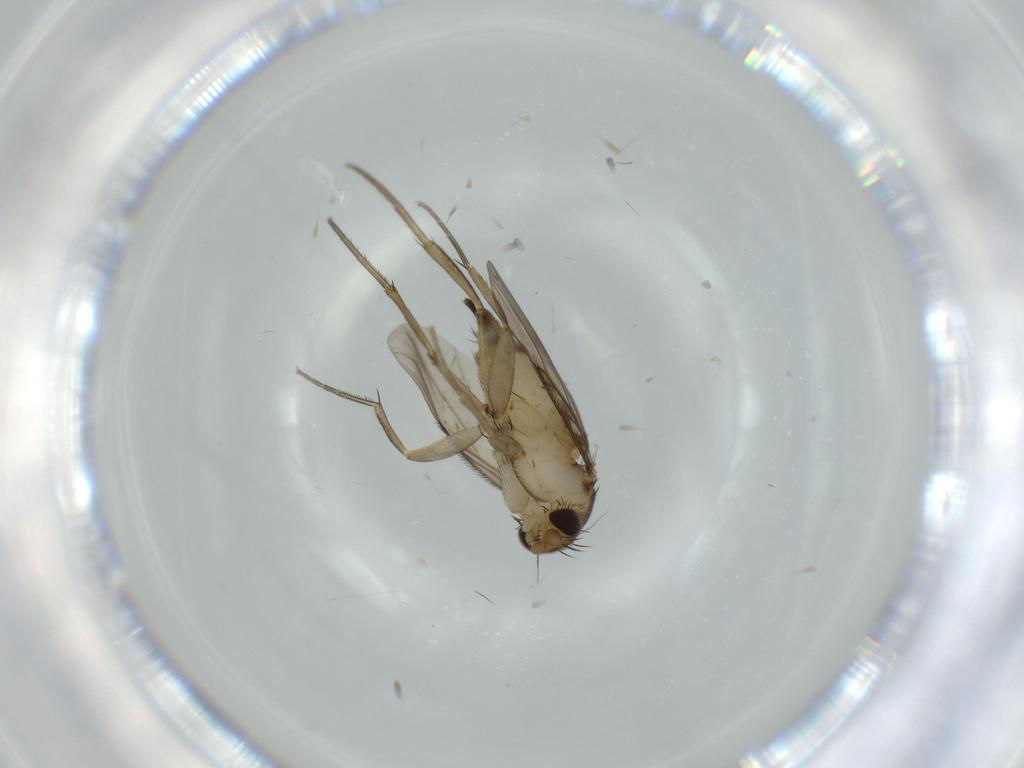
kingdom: Animalia
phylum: Arthropoda
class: Insecta
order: Diptera
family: Phoridae
